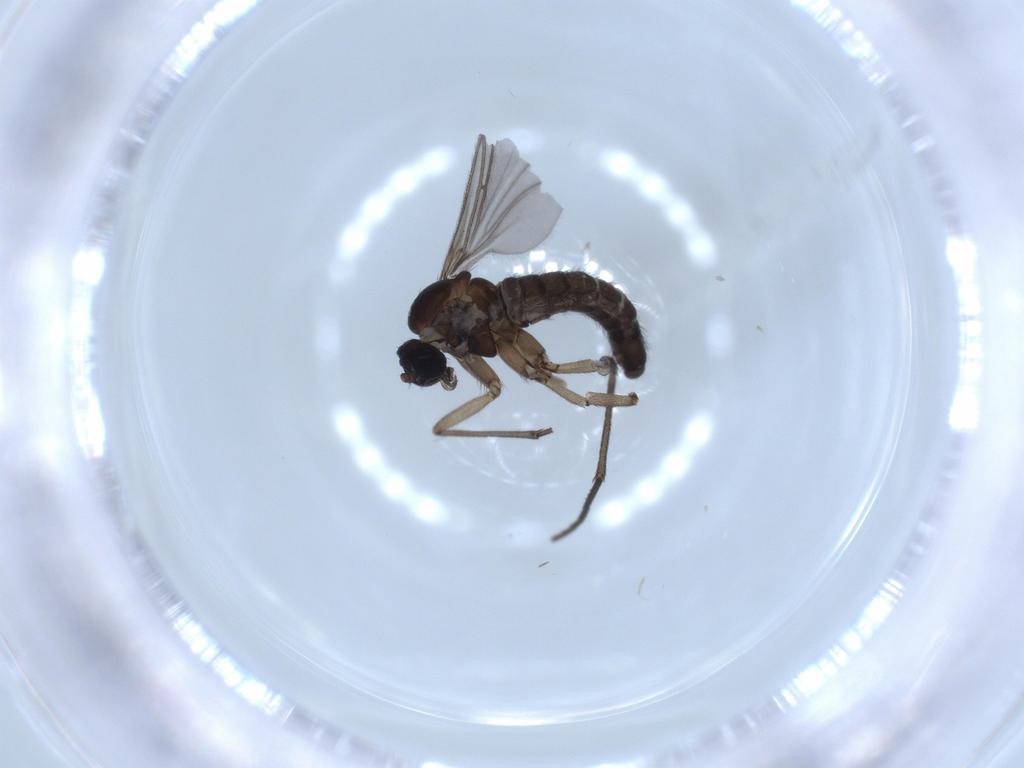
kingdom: Animalia
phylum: Arthropoda
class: Insecta
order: Diptera
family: Sciaridae
